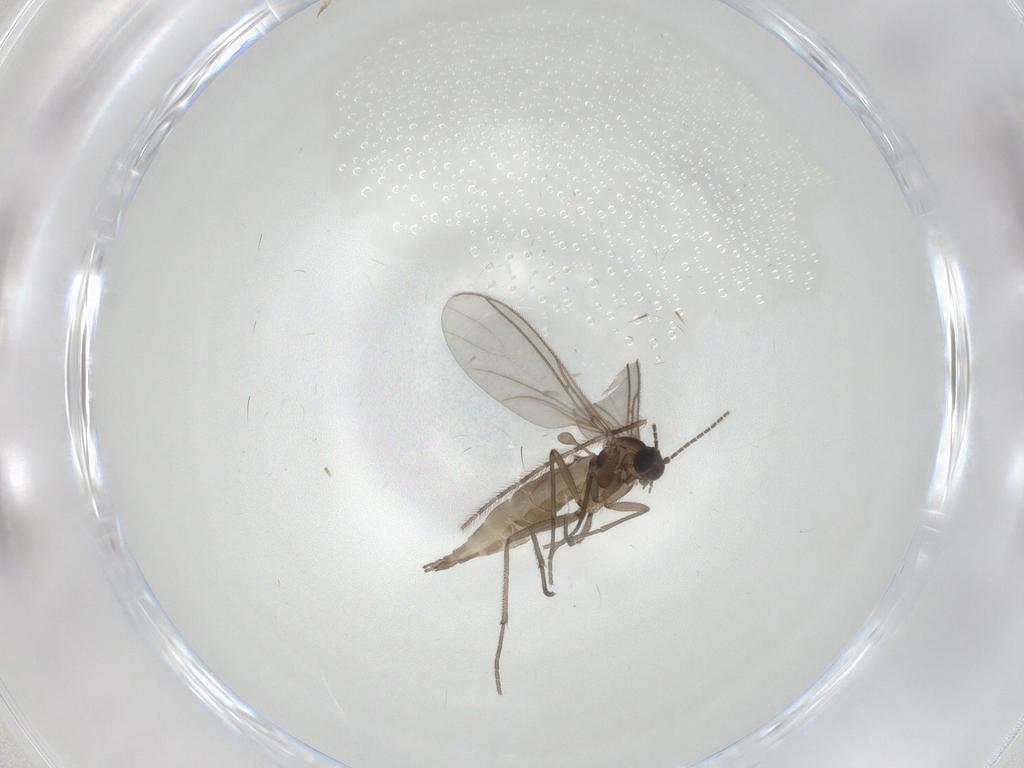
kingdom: Animalia
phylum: Arthropoda
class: Insecta
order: Diptera
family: Sciaridae
